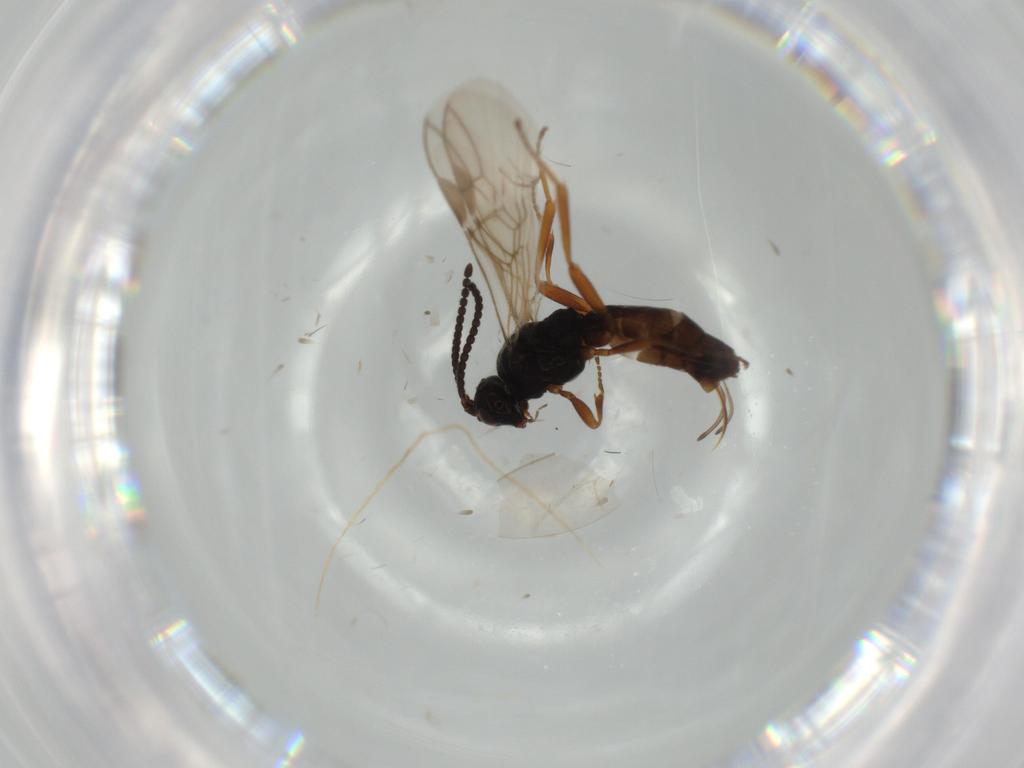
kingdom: Animalia
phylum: Arthropoda
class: Insecta
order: Hymenoptera
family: Braconidae
